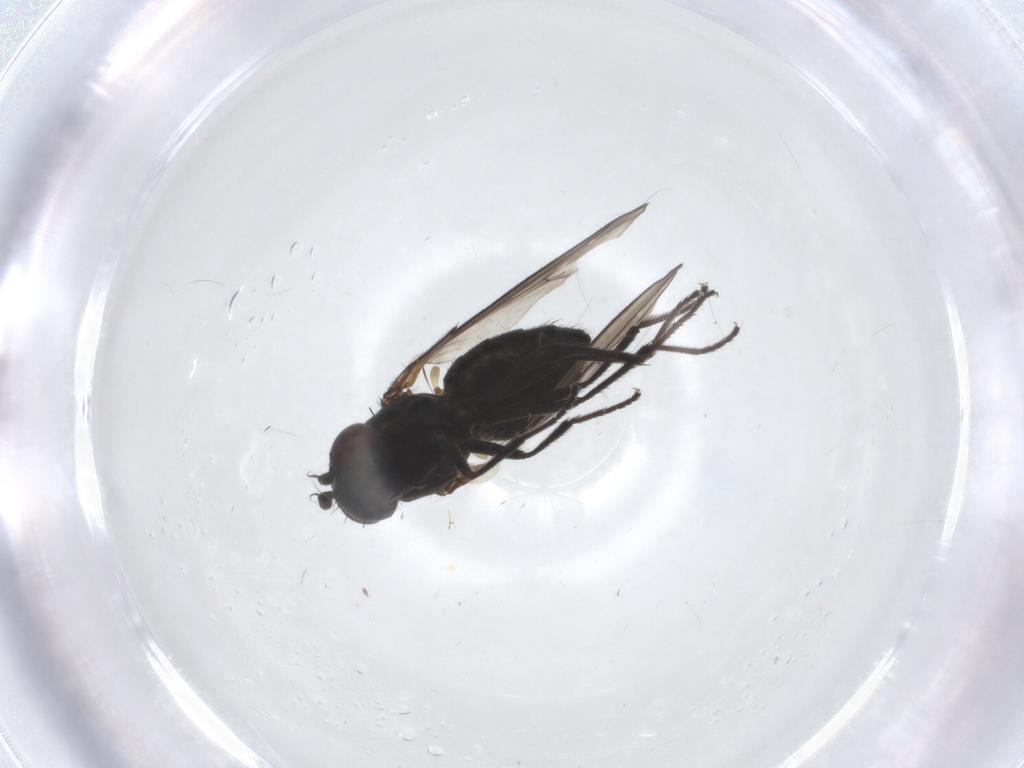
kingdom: Animalia
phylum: Arthropoda
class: Insecta
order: Diptera
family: Ephydridae
